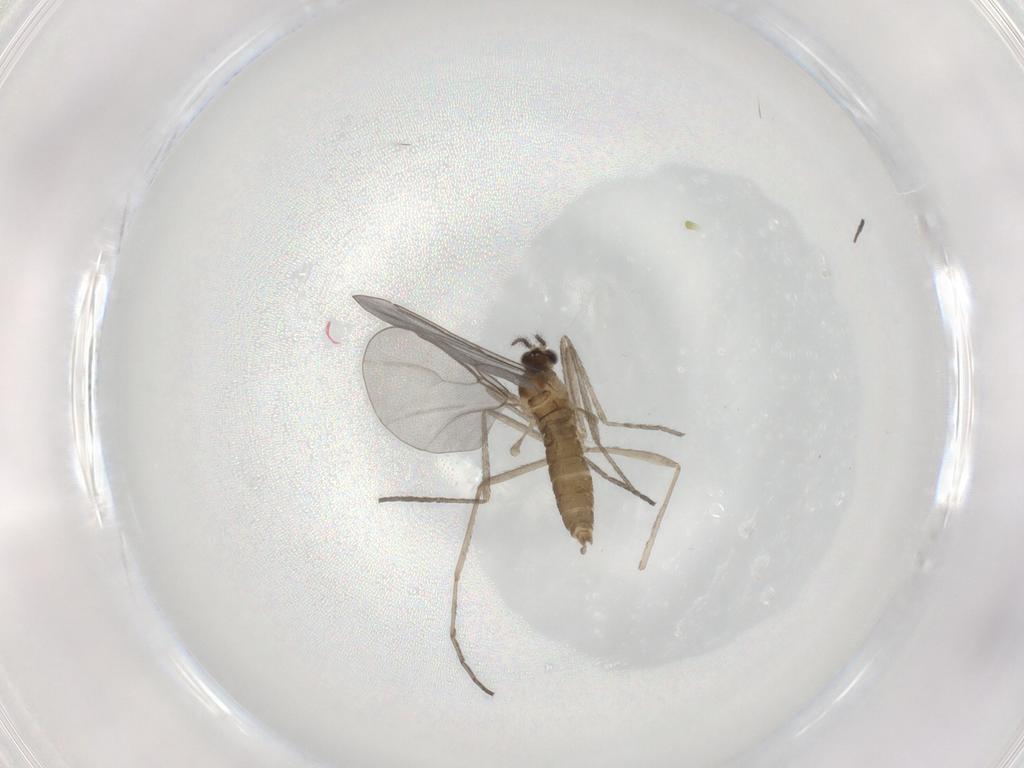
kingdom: Animalia
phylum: Arthropoda
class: Insecta
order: Diptera
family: Cecidomyiidae
